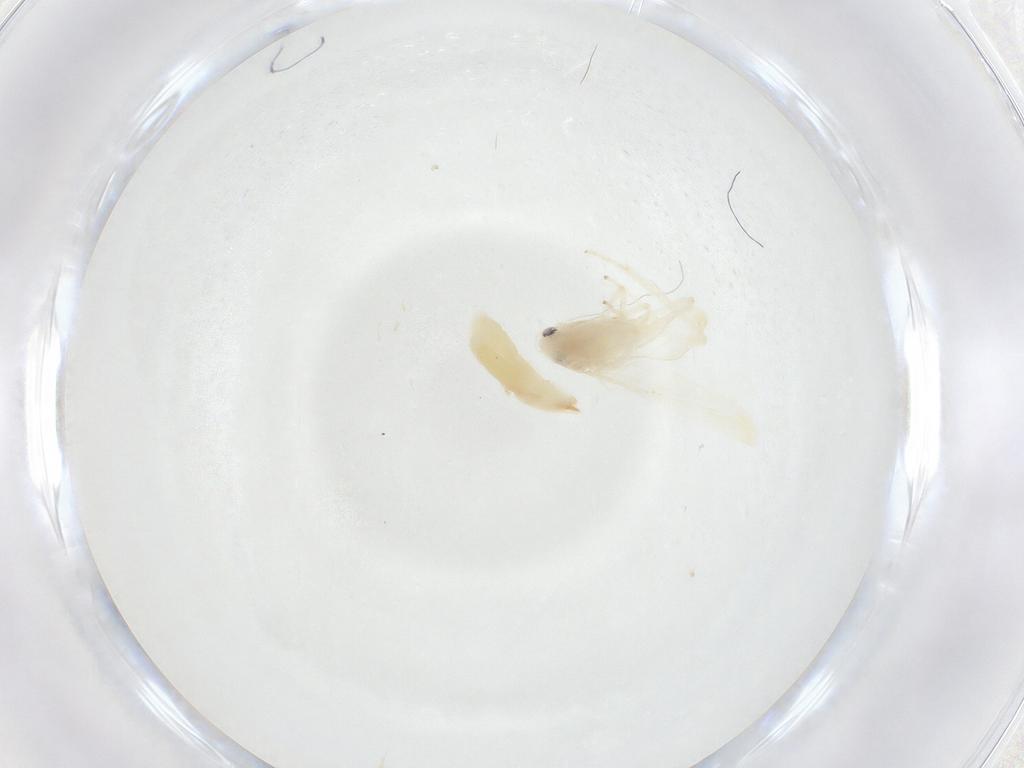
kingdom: Animalia
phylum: Arthropoda
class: Insecta
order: Hemiptera
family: Cicadellidae
